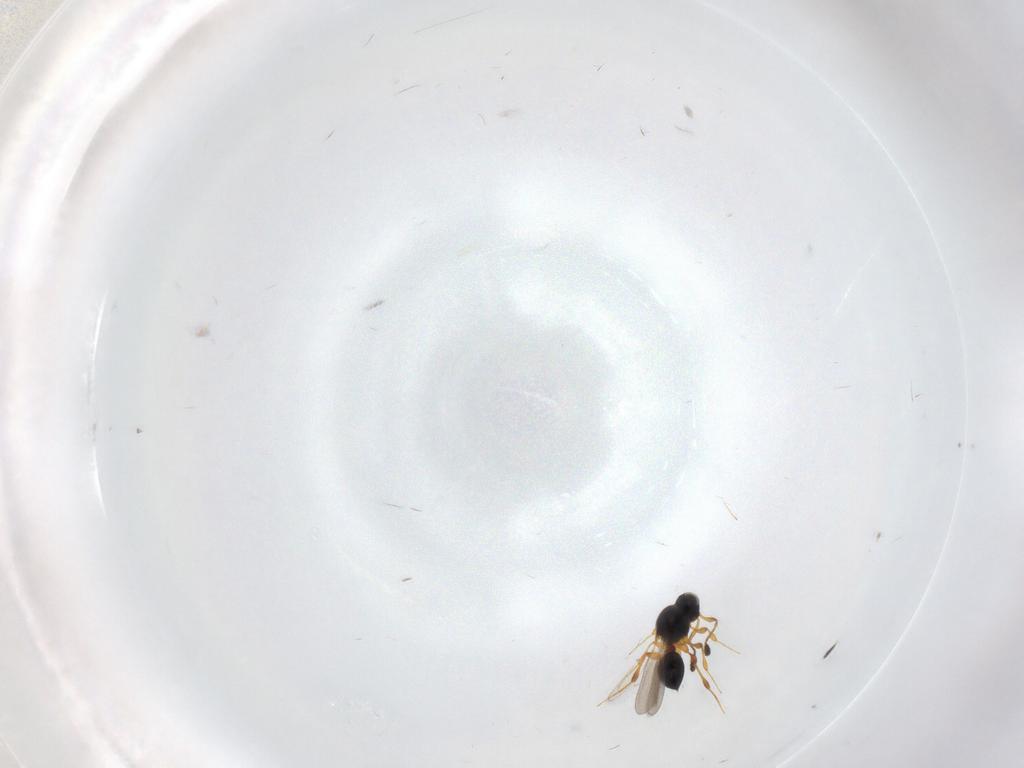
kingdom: Animalia
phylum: Arthropoda
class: Insecta
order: Hymenoptera
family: Platygastridae
